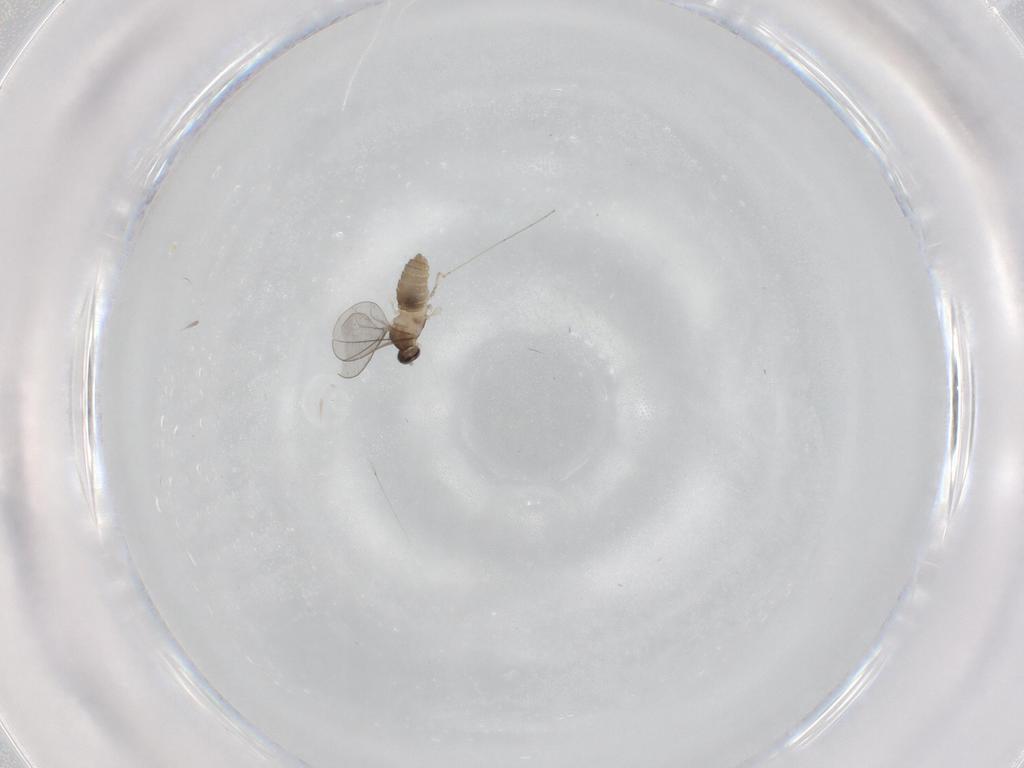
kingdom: Animalia
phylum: Arthropoda
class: Insecta
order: Diptera
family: Cecidomyiidae
